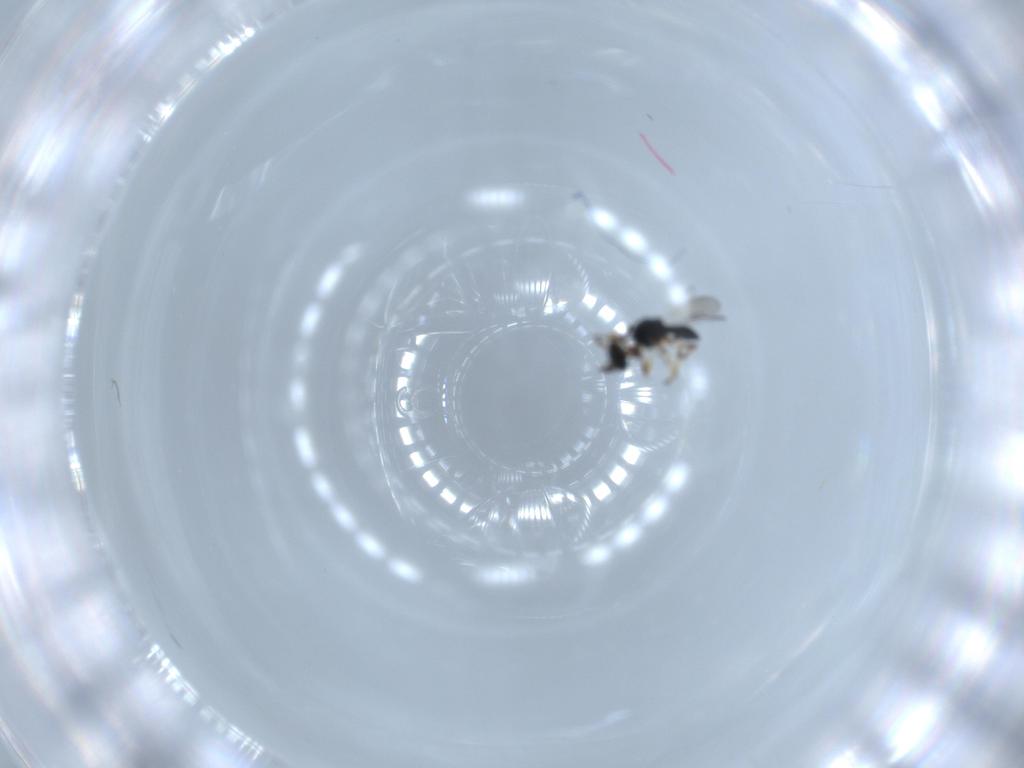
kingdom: Animalia
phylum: Arthropoda
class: Insecta
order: Hymenoptera
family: Platygastridae
